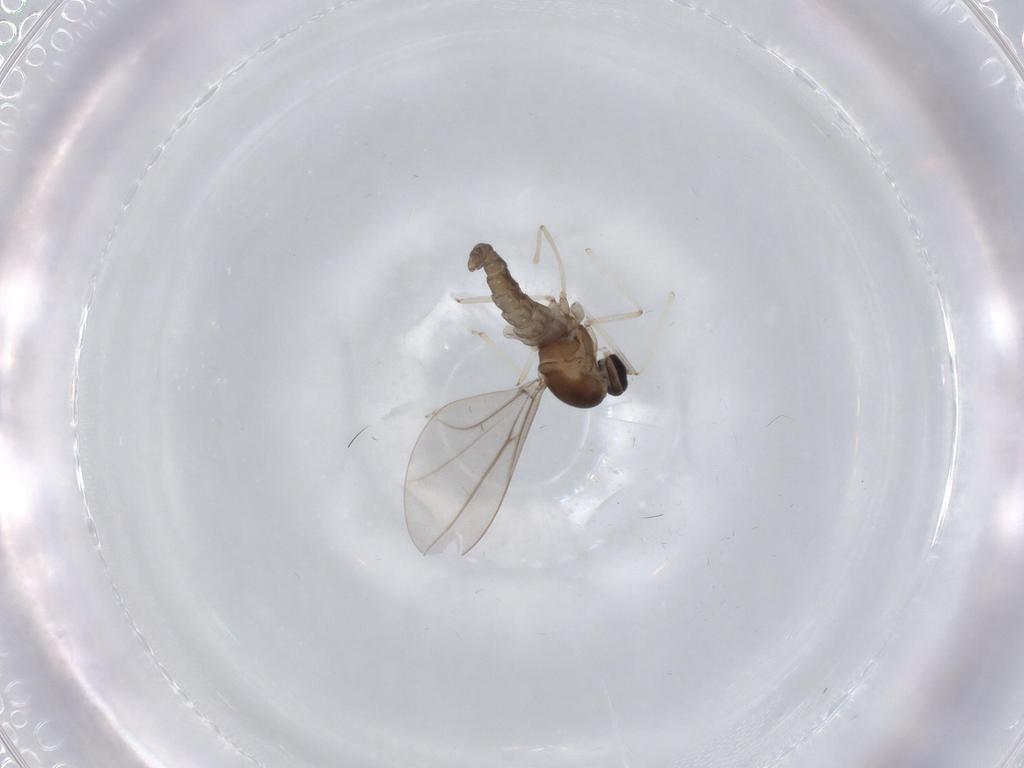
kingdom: Animalia
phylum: Arthropoda
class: Insecta
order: Diptera
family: Cecidomyiidae
